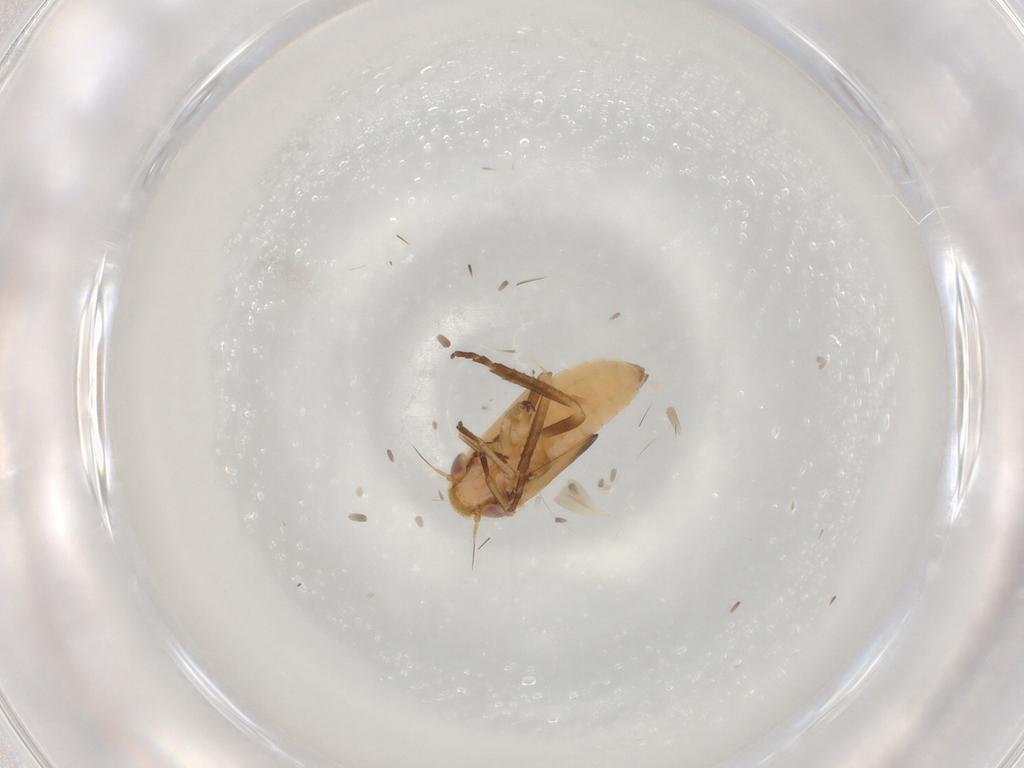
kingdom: Animalia
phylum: Arthropoda
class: Insecta
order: Hemiptera
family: Cicadellidae
